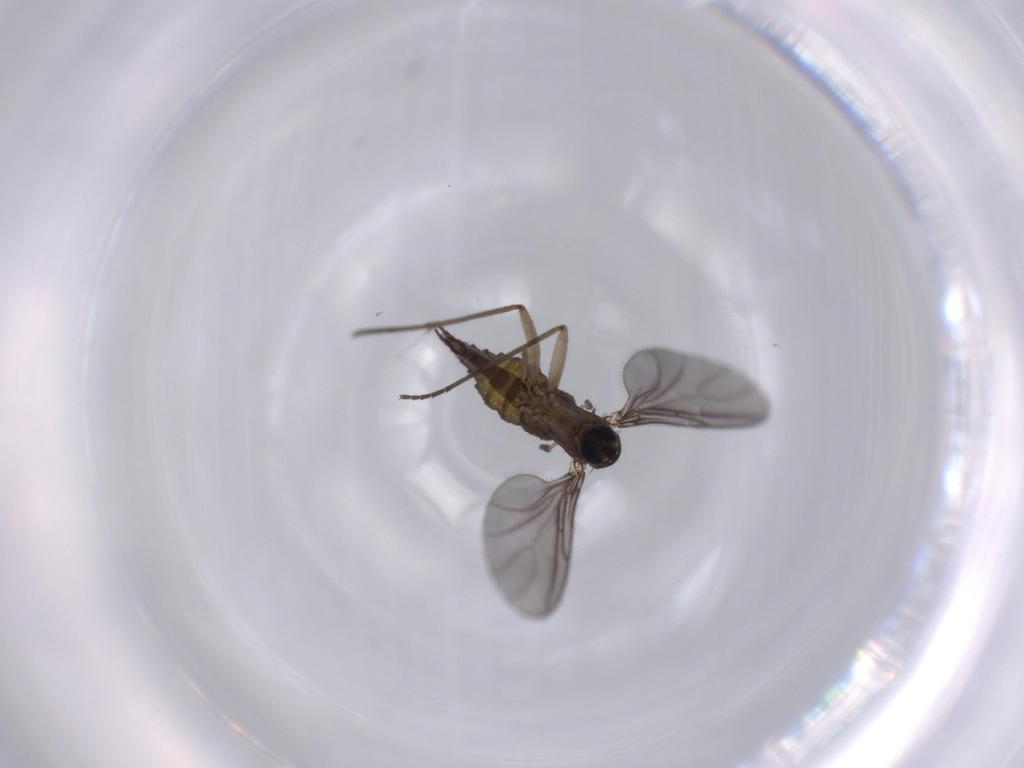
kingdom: Animalia
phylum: Arthropoda
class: Insecta
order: Diptera
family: Sciaridae
